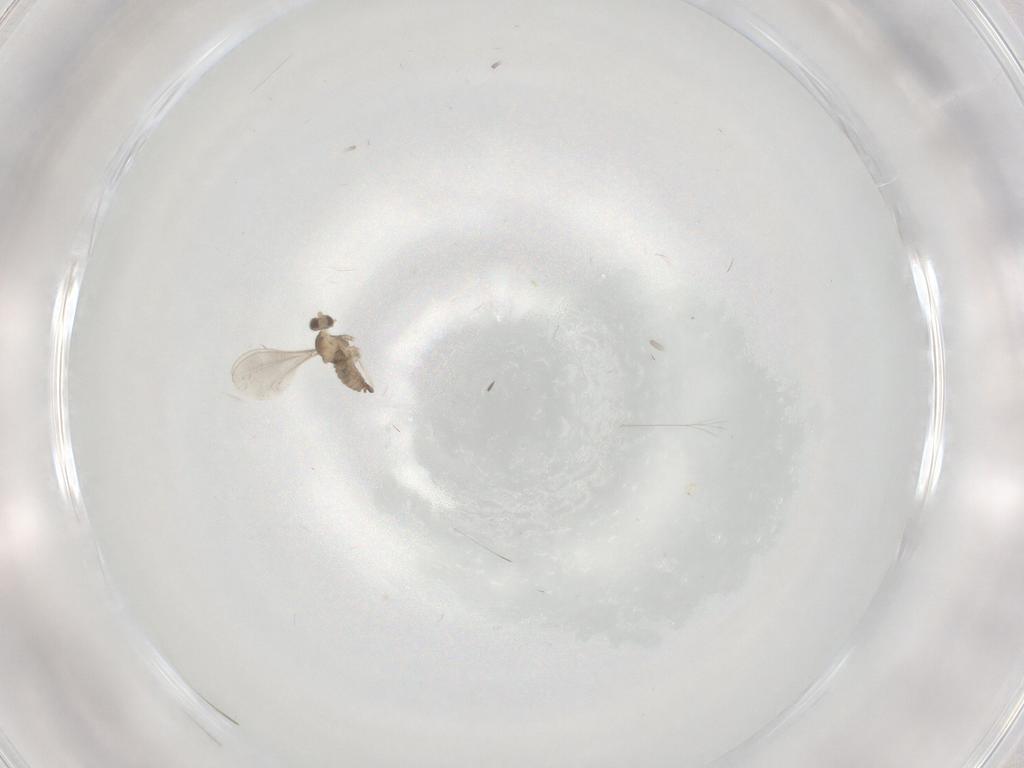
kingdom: Animalia
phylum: Arthropoda
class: Insecta
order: Diptera
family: Cecidomyiidae
